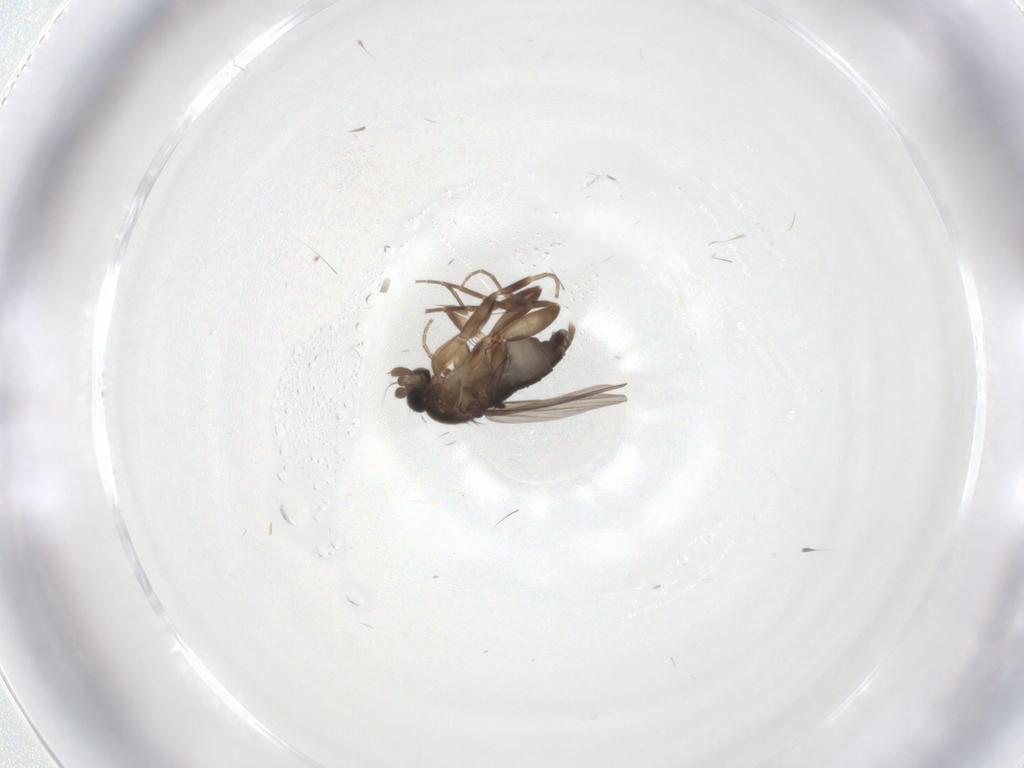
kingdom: Animalia
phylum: Arthropoda
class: Insecta
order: Diptera
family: Phoridae
